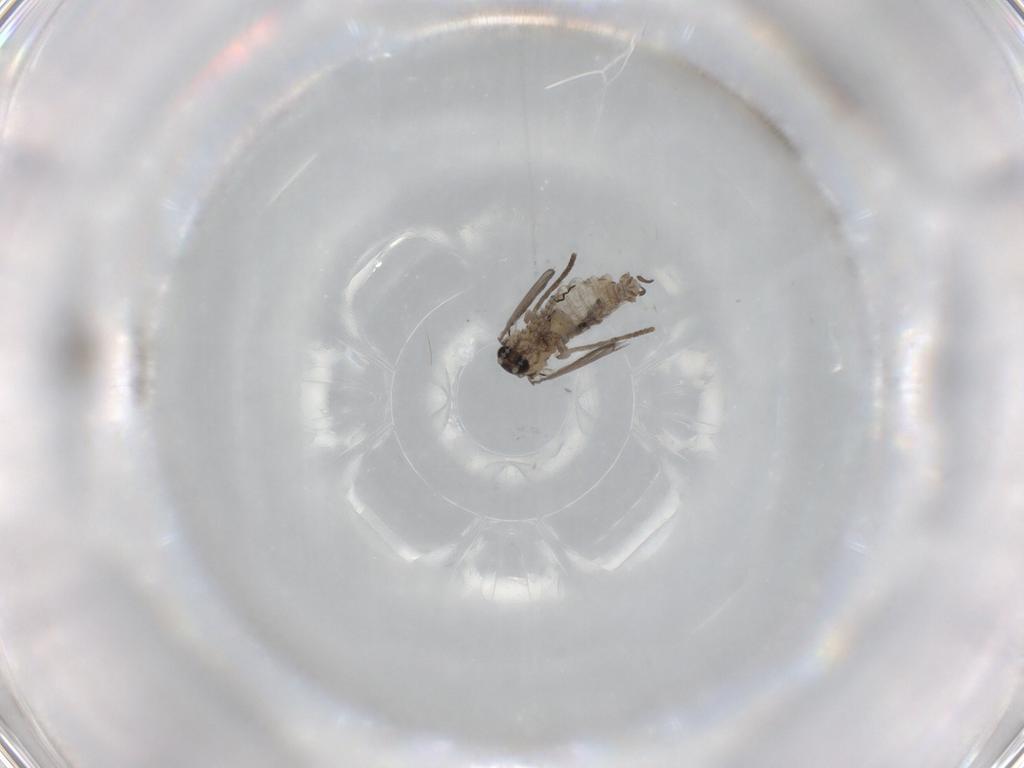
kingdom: Animalia
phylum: Arthropoda
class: Insecta
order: Diptera
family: Psychodidae
